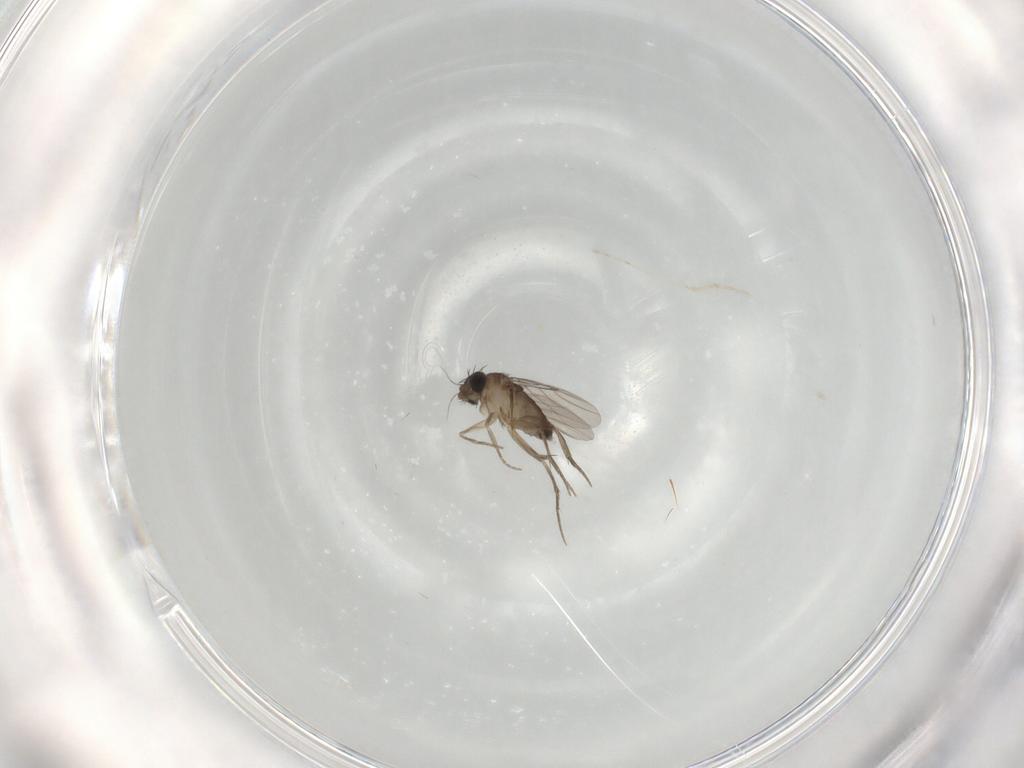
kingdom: Animalia
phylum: Arthropoda
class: Insecta
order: Diptera
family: Phoridae
